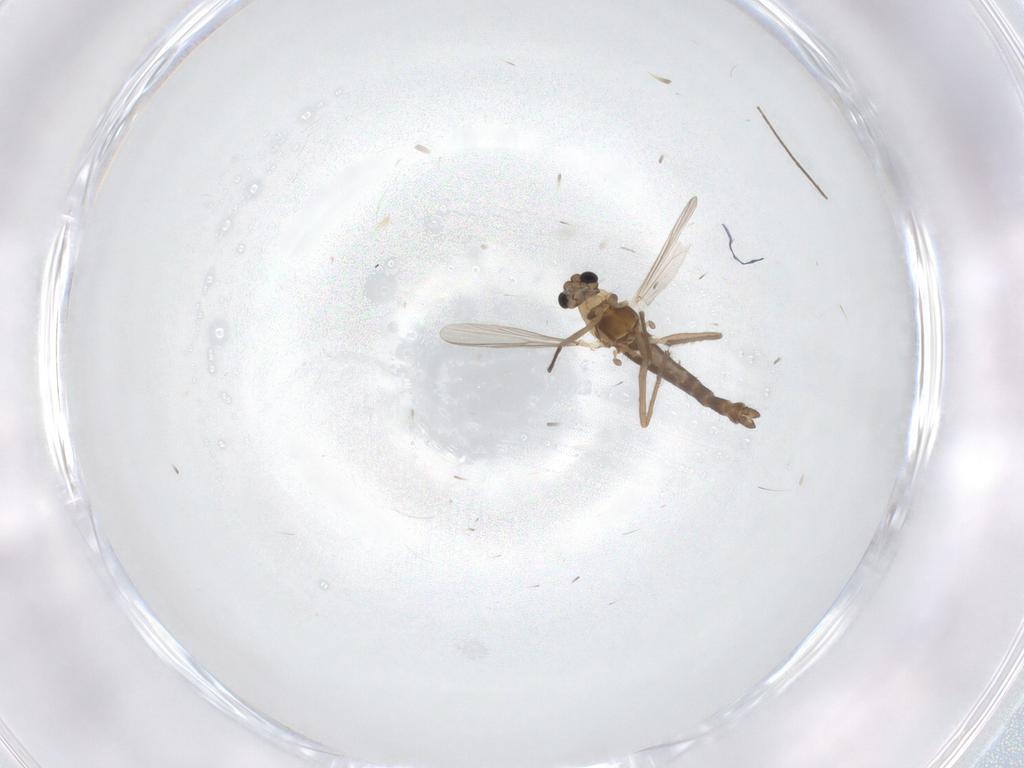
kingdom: Animalia
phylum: Arthropoda
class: Insecta
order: Diptera
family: Chironomidae
